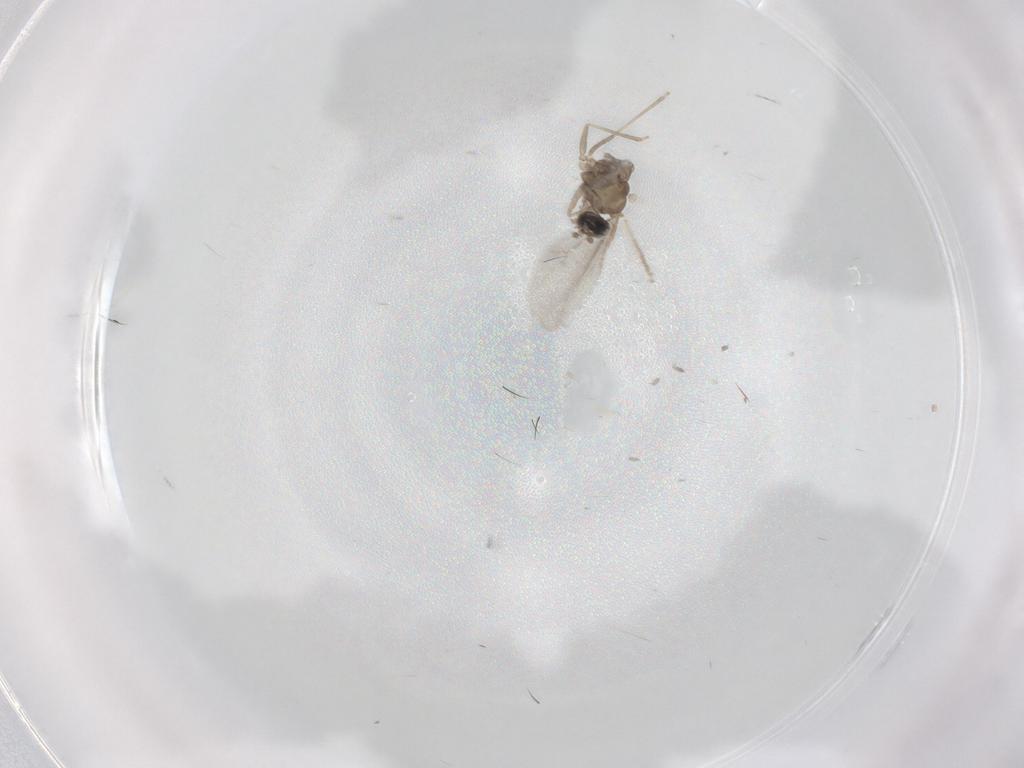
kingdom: Animalia
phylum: Arthropoda
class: Insecta
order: Diptera
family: Cecidomyiidae
